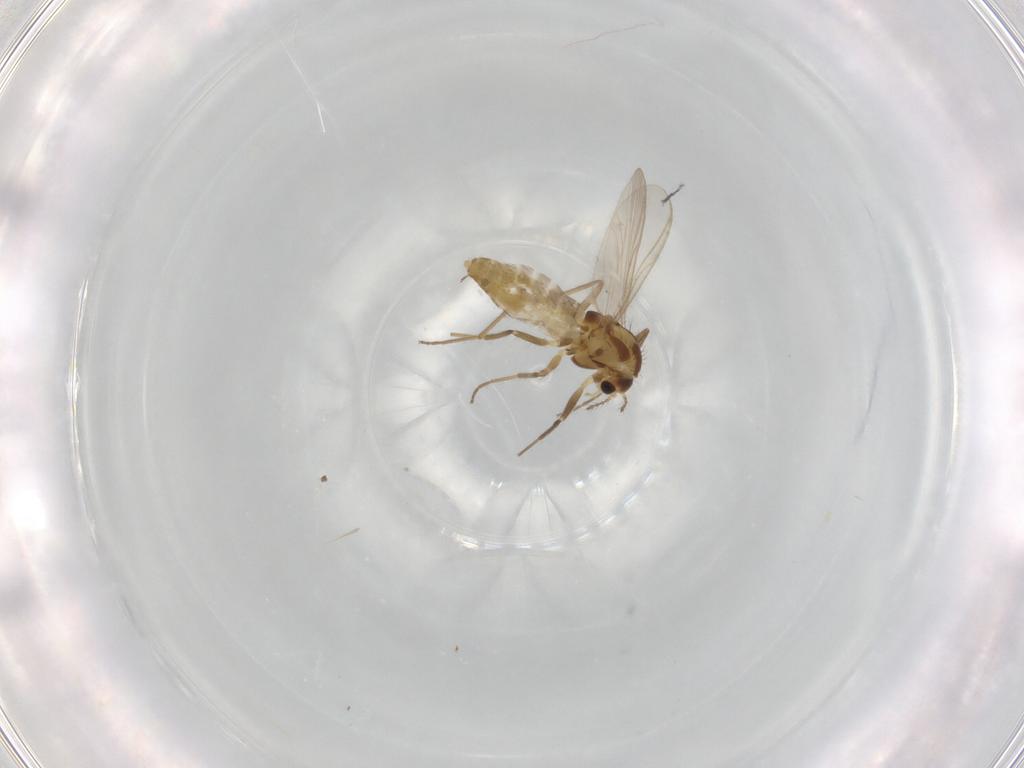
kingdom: Animalia
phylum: Arthropoda
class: Insecta
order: Diptera
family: Chironomidae
